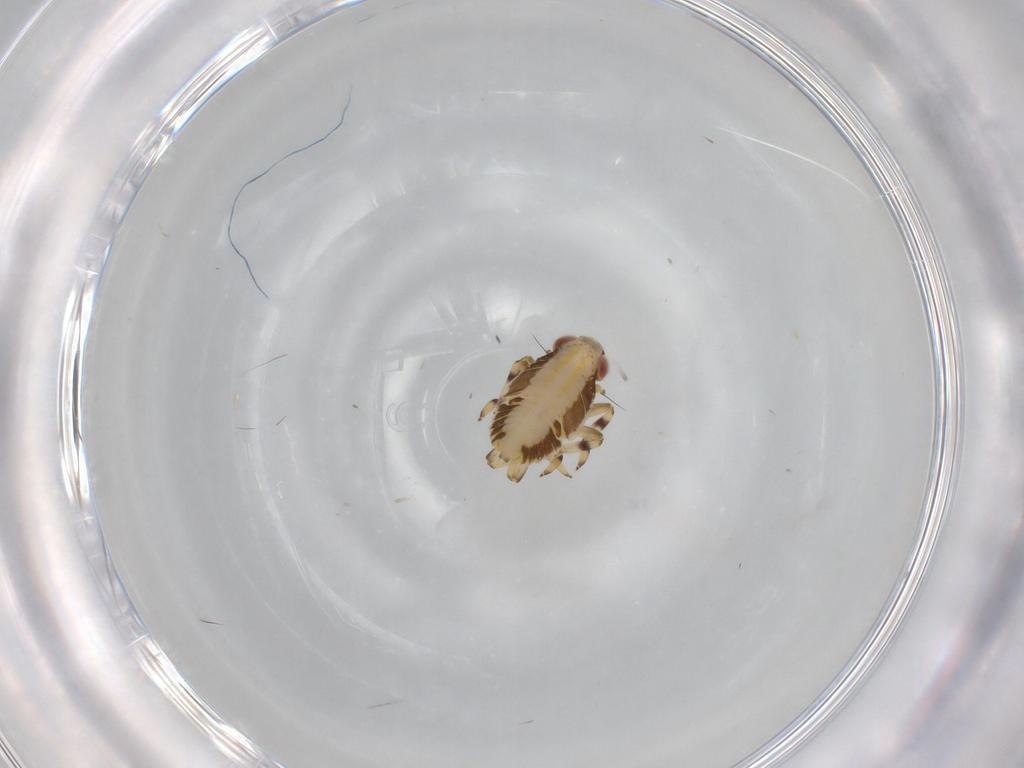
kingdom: Animalia
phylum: Arthropoda
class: Insecta
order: Hemiptera
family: Issidae
